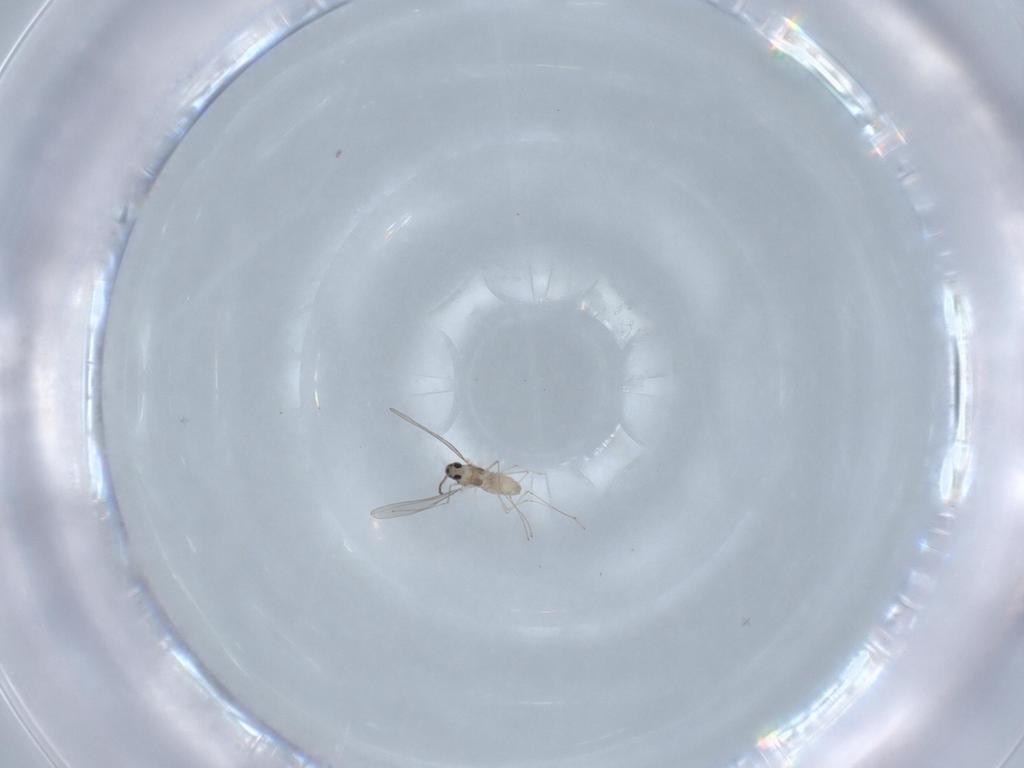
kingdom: Animalia
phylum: Arthropoda
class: Insecta
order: Diptera
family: Cecidomyiidae
